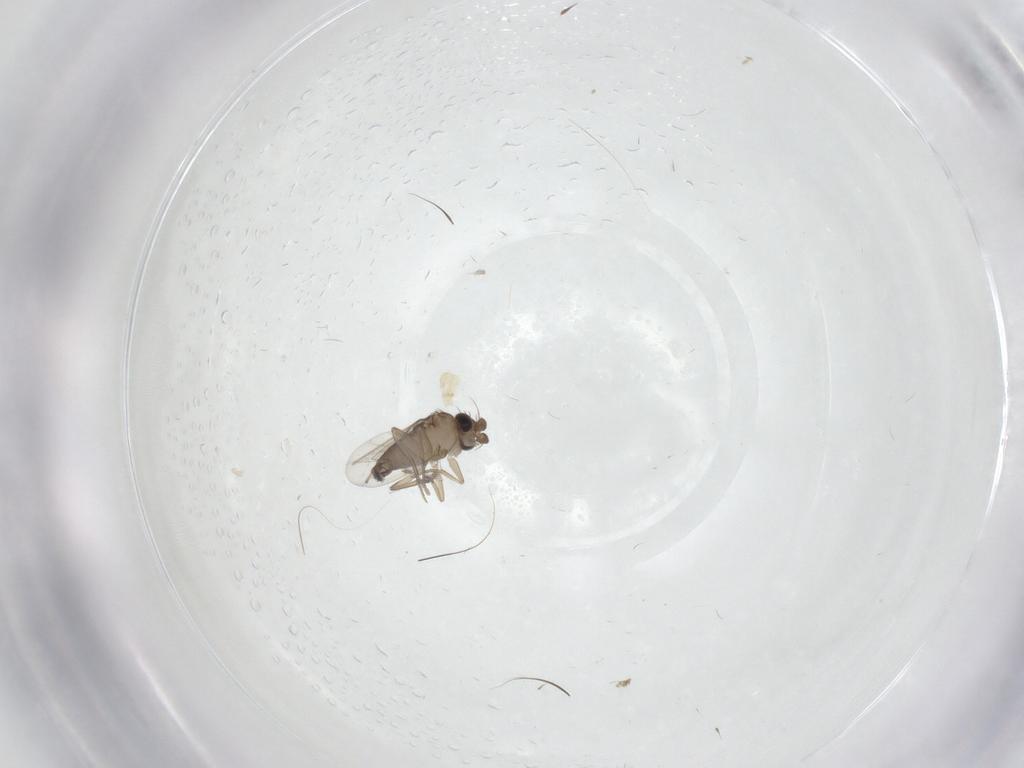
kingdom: Animalia
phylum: Arthropoda
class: Insecta
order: Diptera
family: Phoridae
